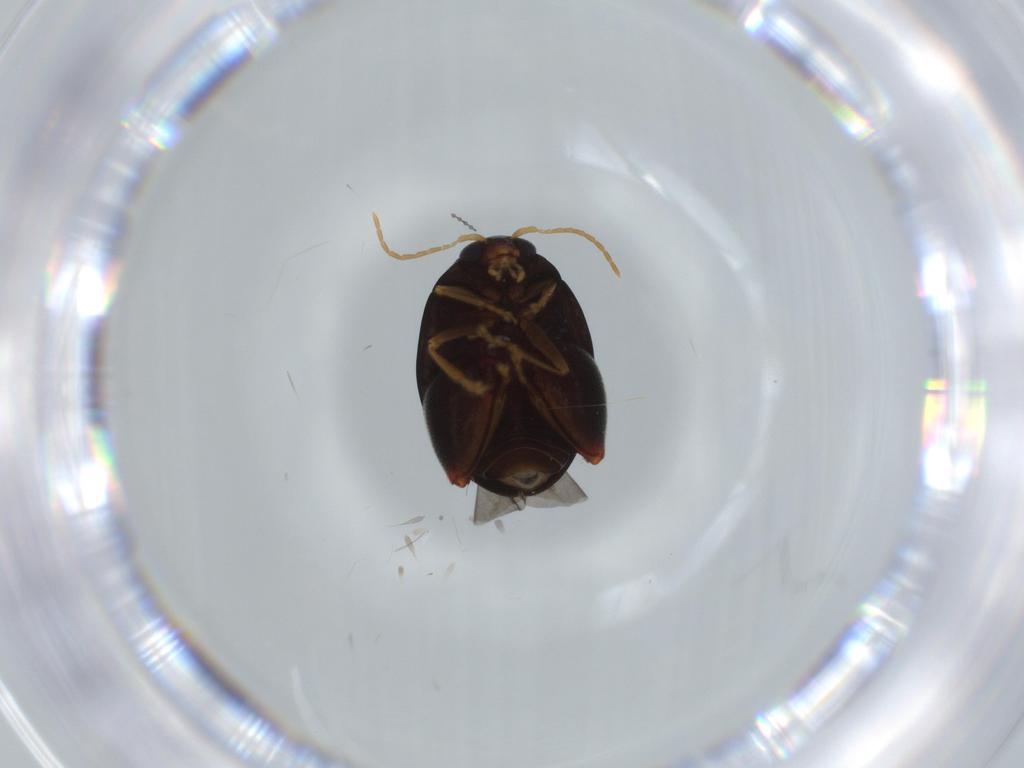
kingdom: Animalia
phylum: Arthropoda
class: Insecta
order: Coleoptera
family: Chrysomelidae
